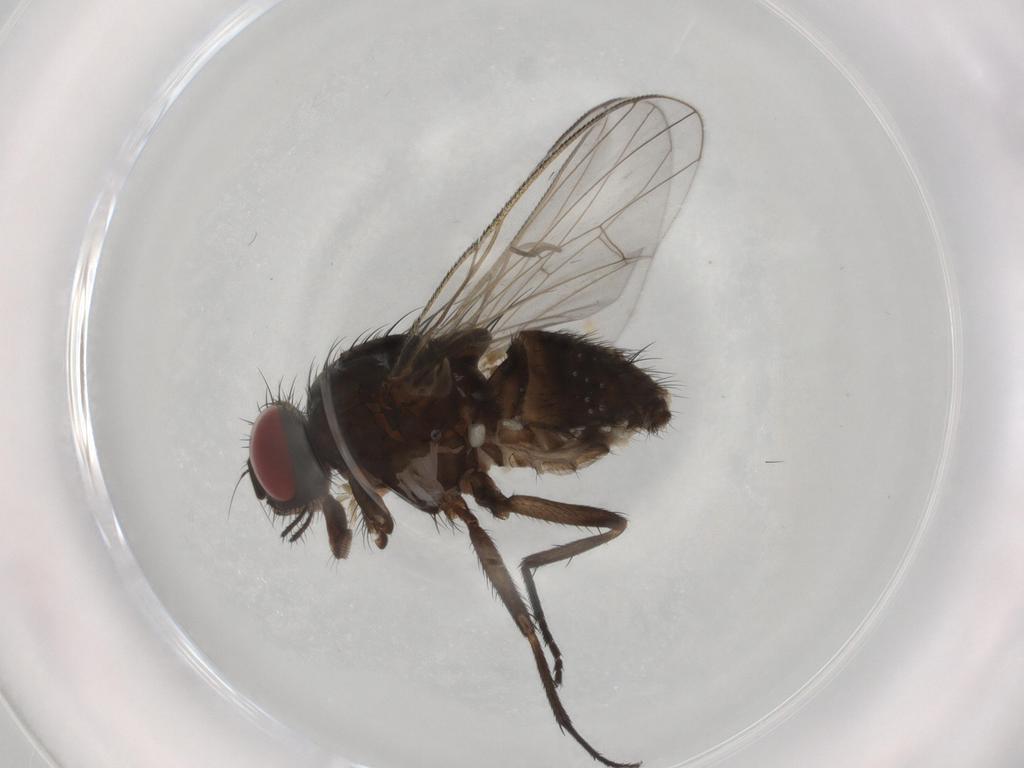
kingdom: Animalia
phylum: Arthropoda
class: Insecta
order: Diptera
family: Muscidae
